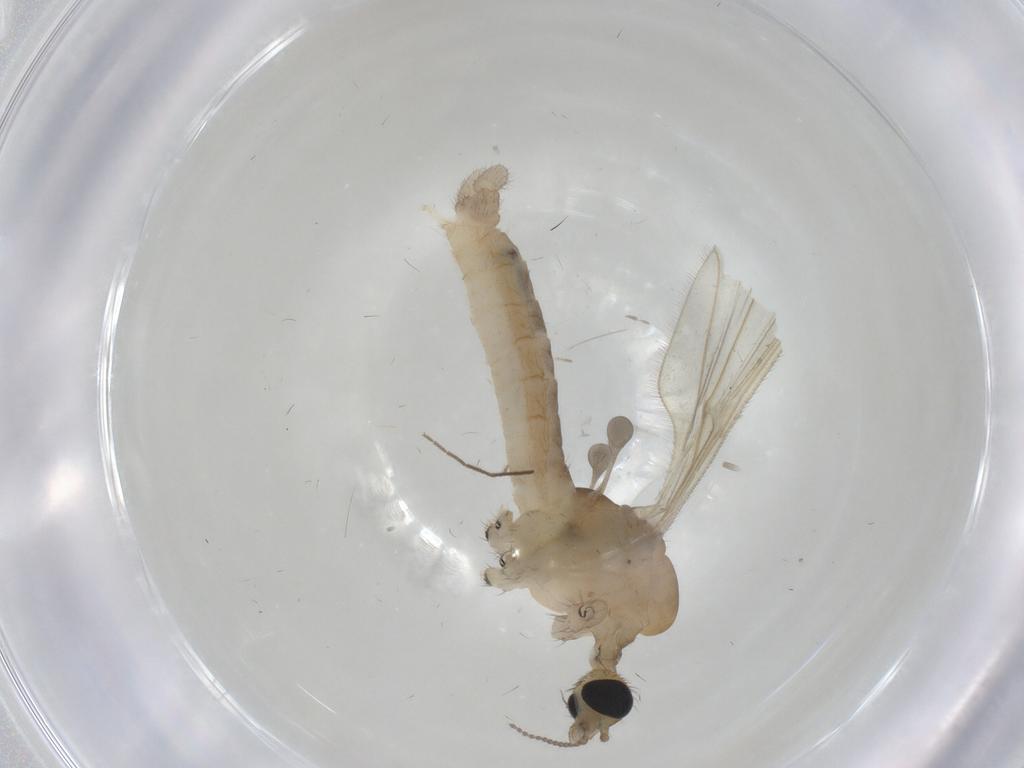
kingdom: Animalia
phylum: Arthropoda
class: Insecta
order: Diptera
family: Limoniidae
